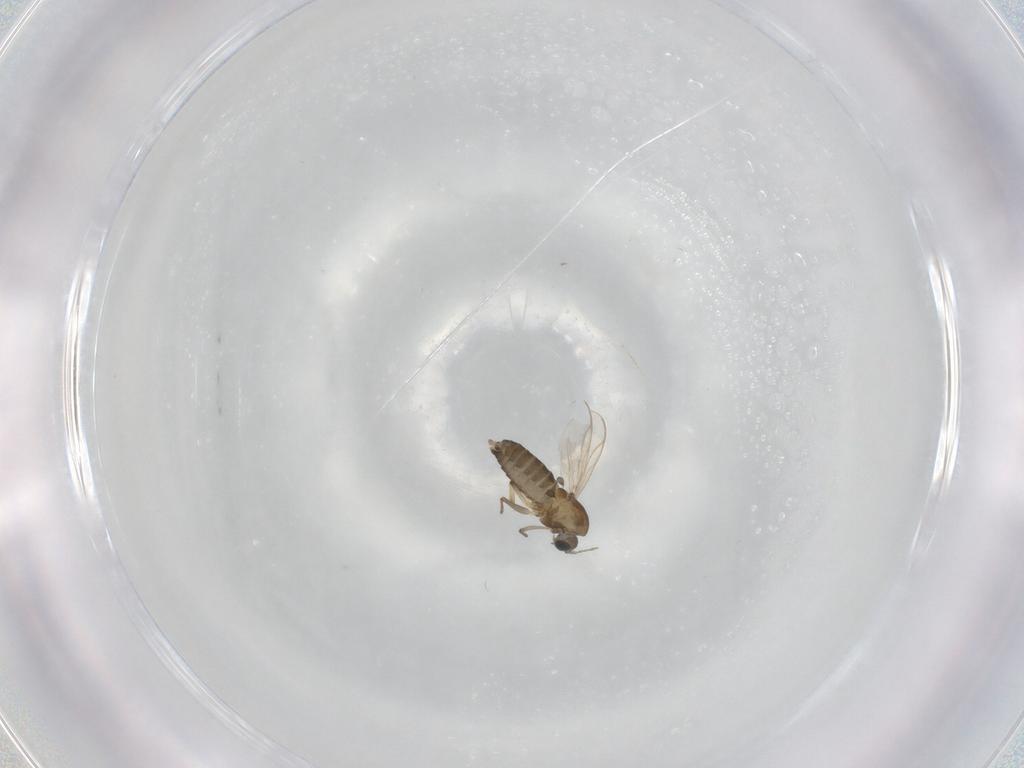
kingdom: Animalia
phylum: Arthropoda
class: Insecta
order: Diptera
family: Chironomidae
